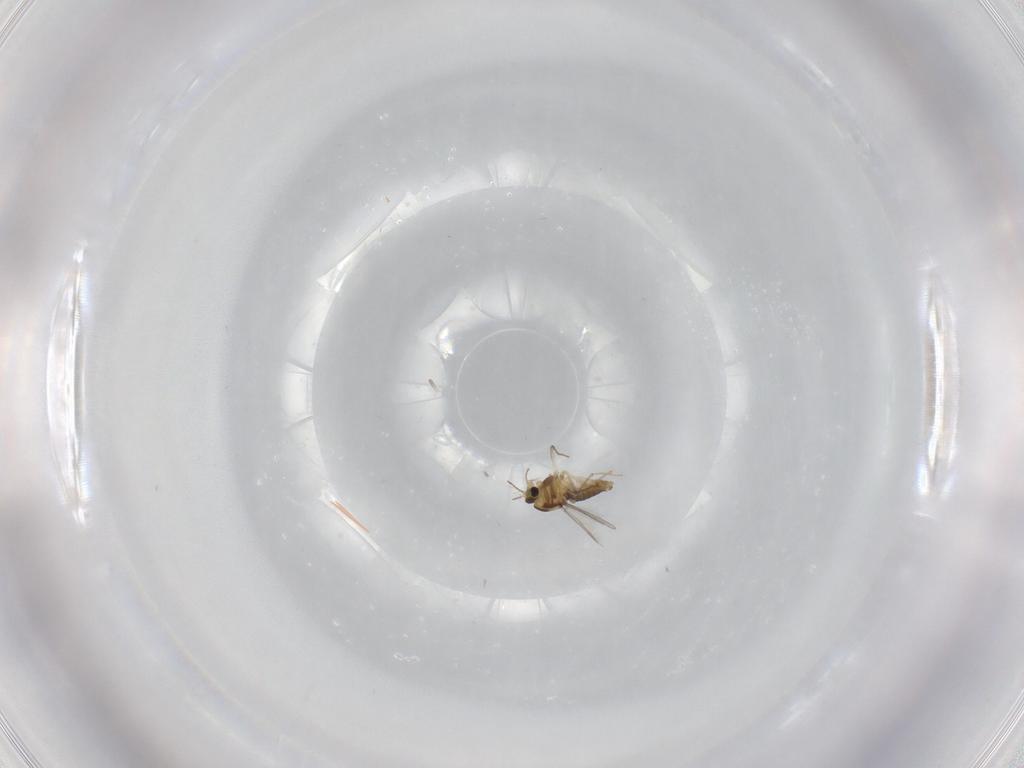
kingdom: Animalia
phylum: Arthropoda
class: Insecta
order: Diptera
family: Chironomidae
